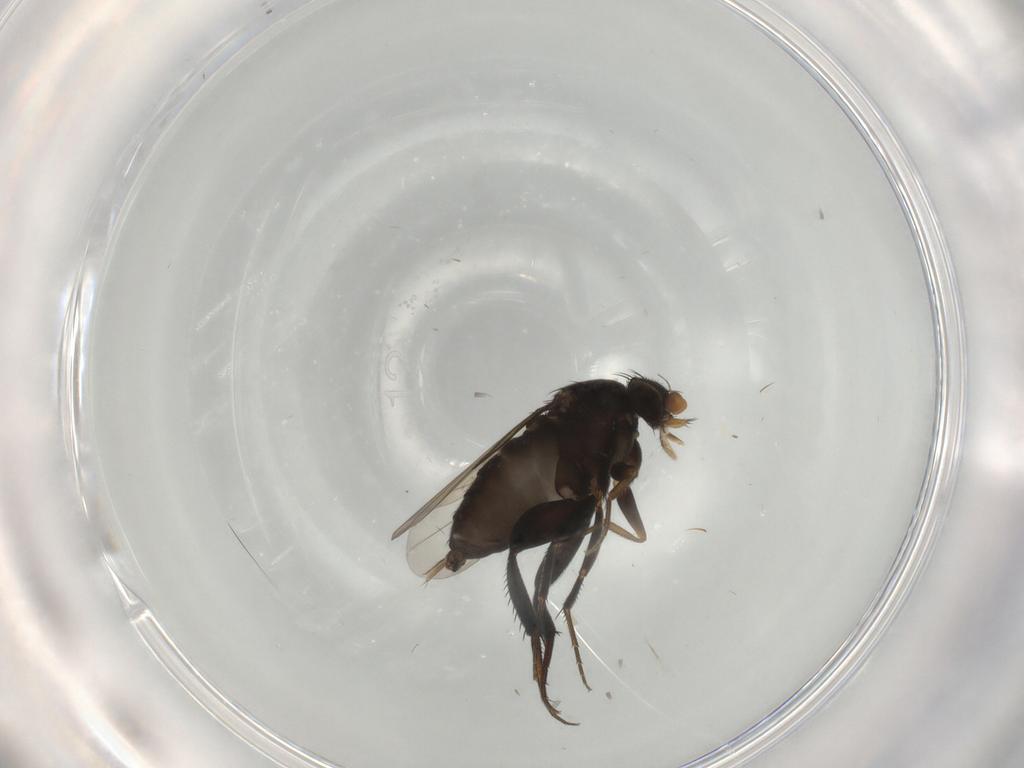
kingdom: Animalia
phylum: Arthropoda
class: Insecta
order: Diptera
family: Phoridae
